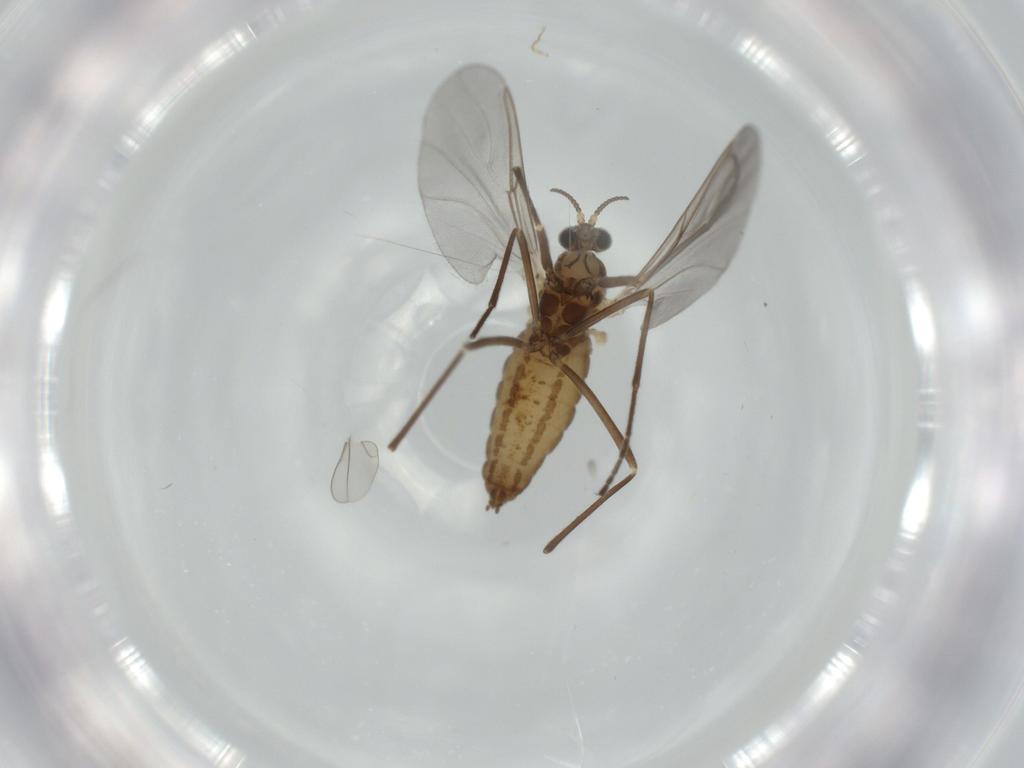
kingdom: Animalia
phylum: Arthropoda
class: Insecta
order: Diptera
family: Cecidomyiidae
